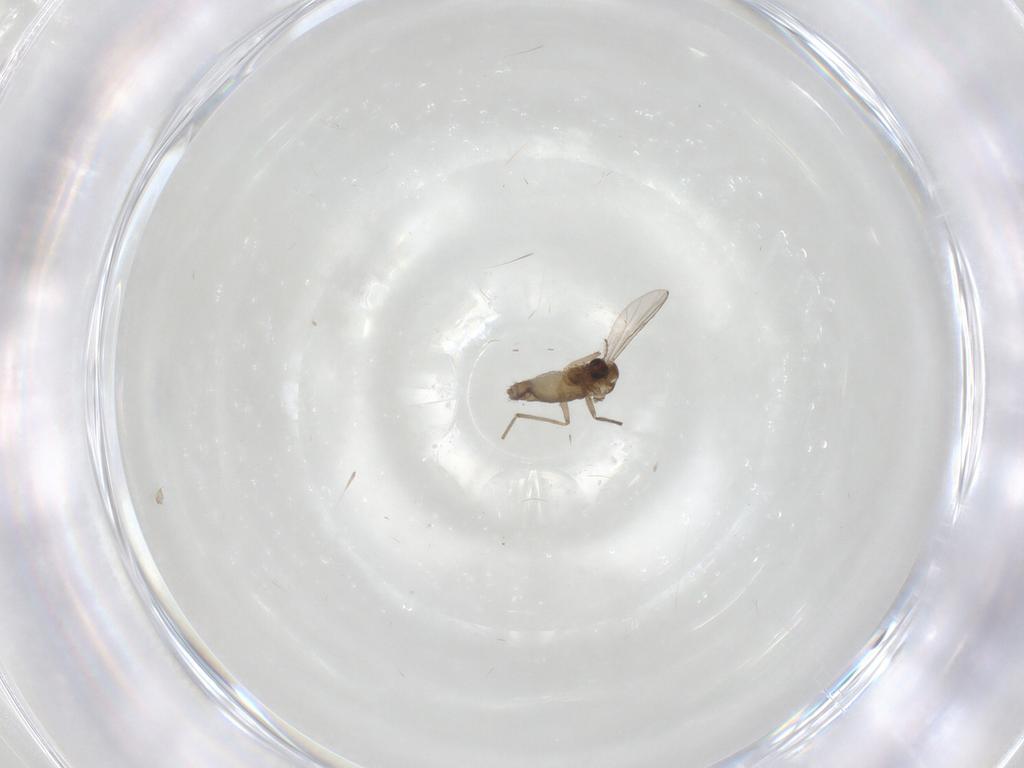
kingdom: Animalia
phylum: Arthropoda
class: Insecta
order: Diptera
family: Chironomidae
